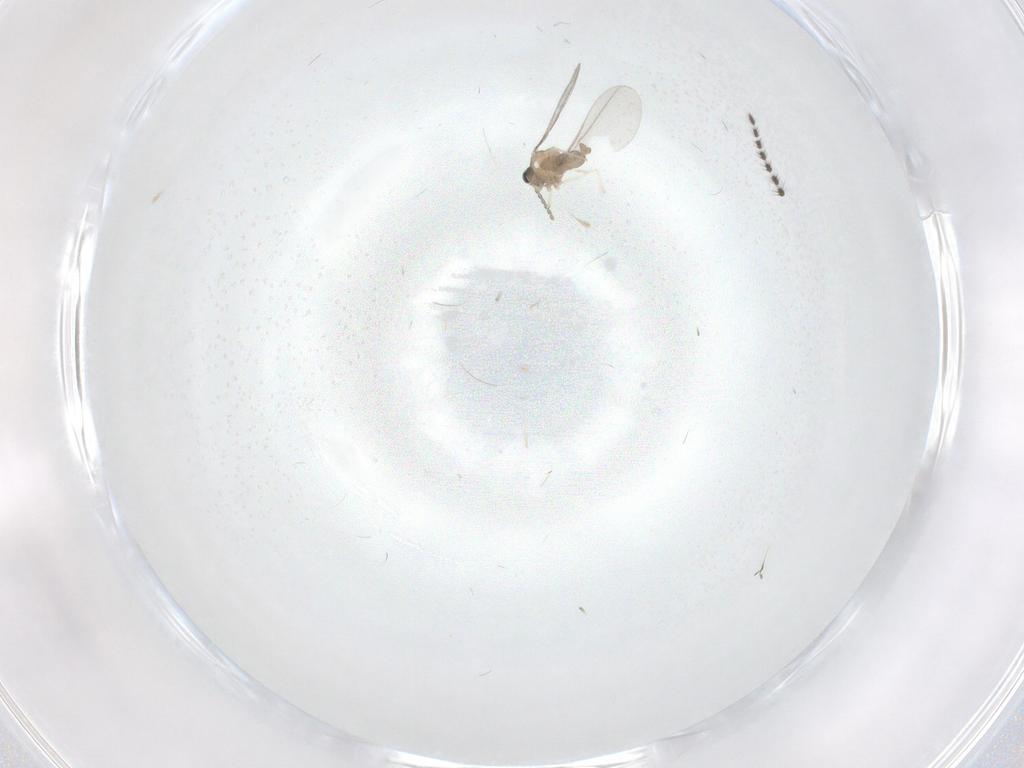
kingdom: Animalia
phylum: Arthropoda
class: Insecta
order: Diptera
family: Sciaridae
